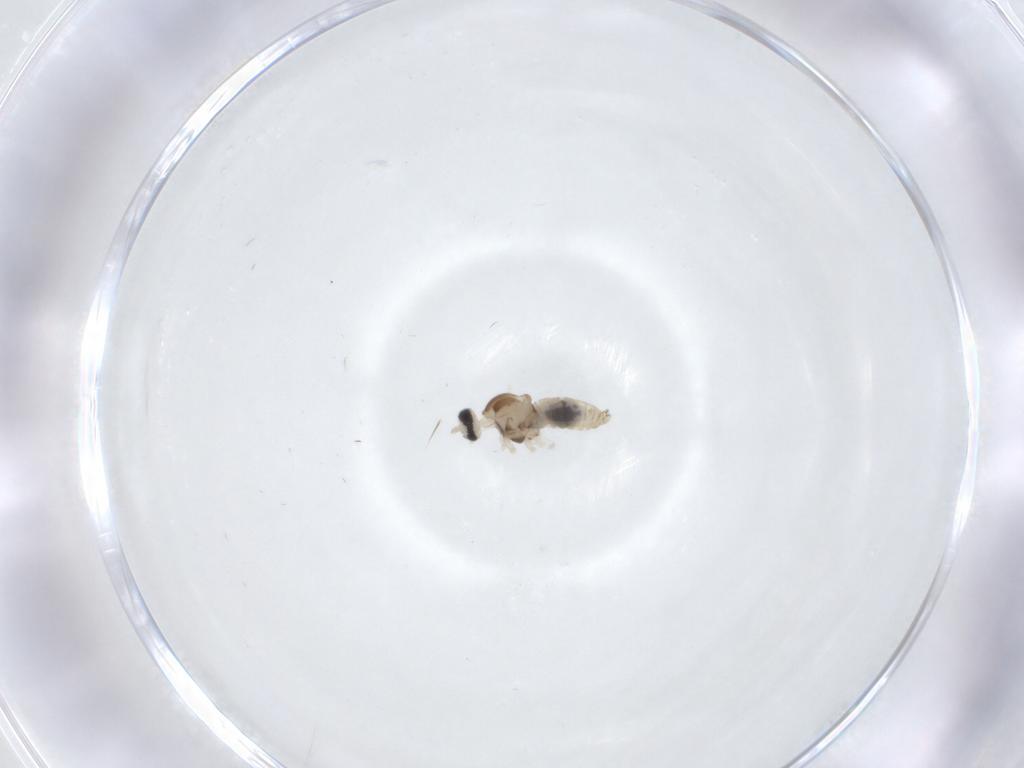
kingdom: Animalia
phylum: Arthropoda
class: Insecta
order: Diptera
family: Cecidomyiidae
